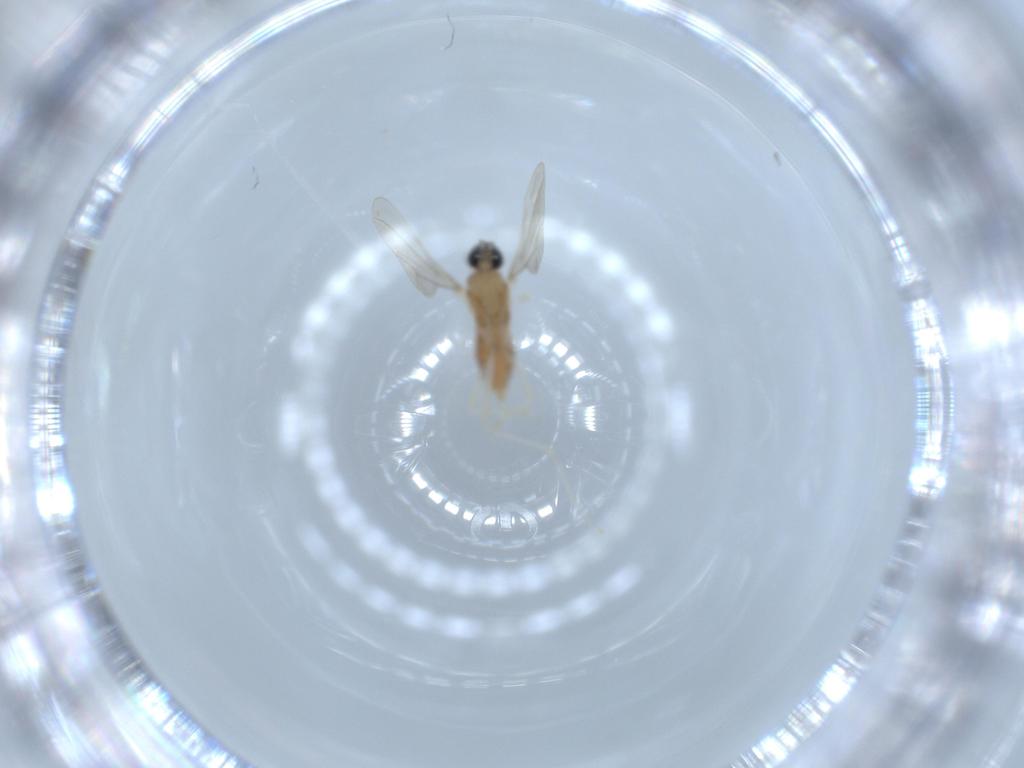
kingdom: Animalia
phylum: Arthropoda
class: Insecta
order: Diptera
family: Cecidomyiidae
